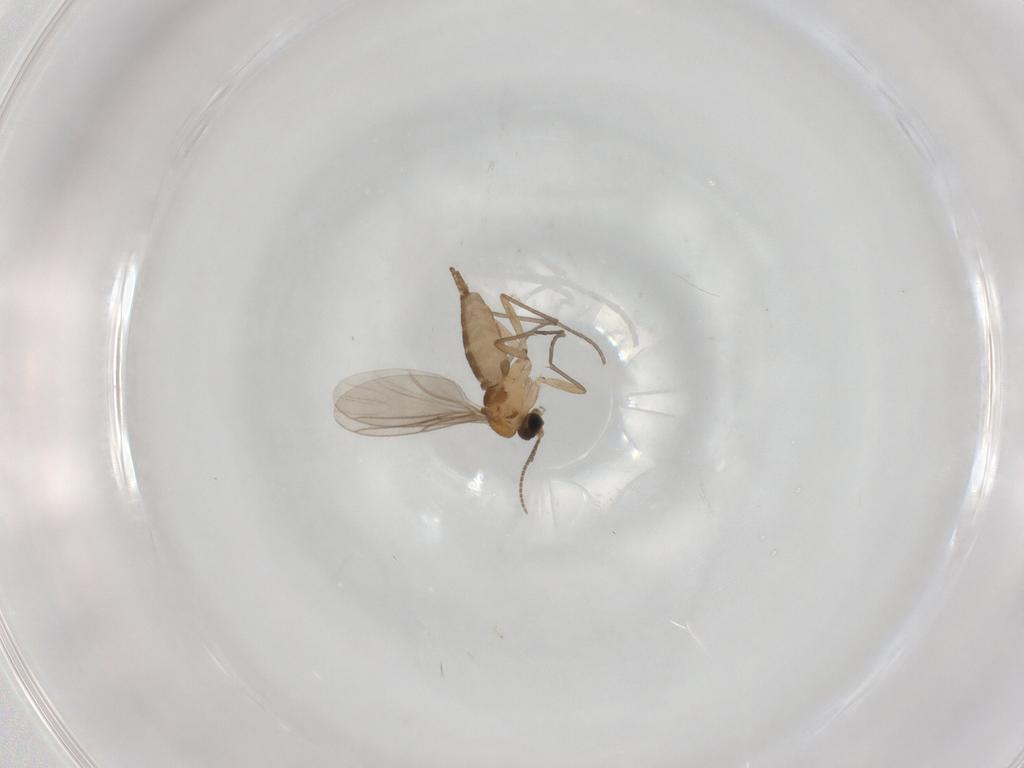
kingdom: Animalia
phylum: Arthropoda
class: Insecta
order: Diptera
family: Sciaridae
